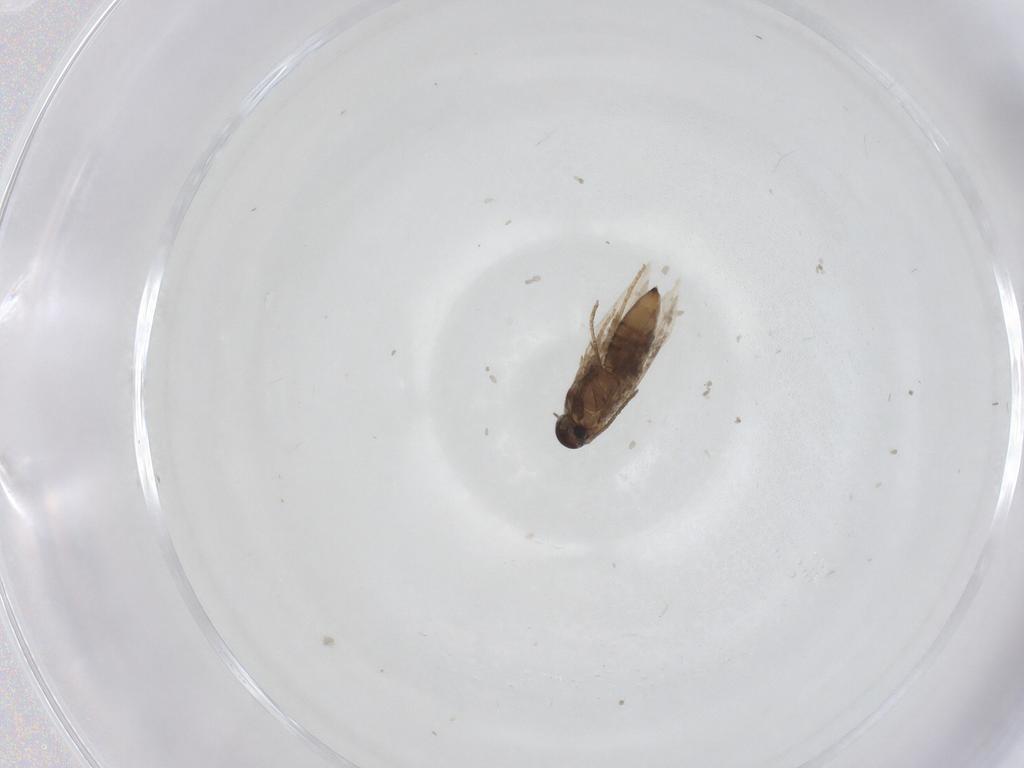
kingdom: Animalia
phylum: Arthropoda
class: Insecta
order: Lepidoptera
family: Heliozelidae
